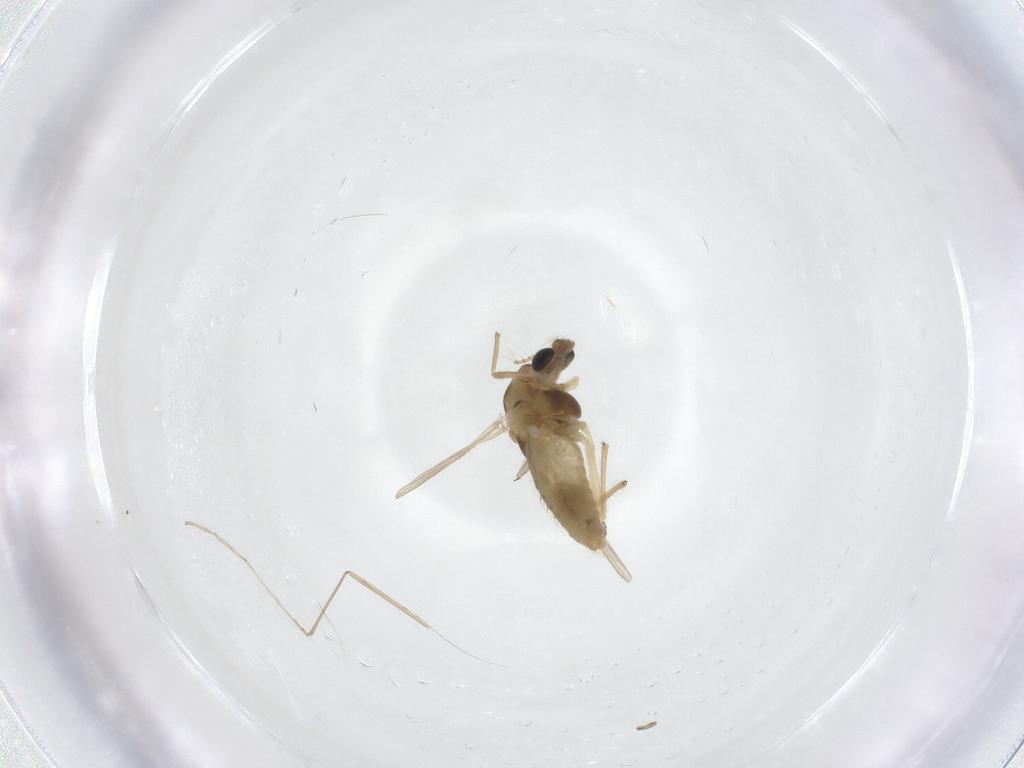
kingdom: Animalia
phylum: Arthropoda
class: Insecta
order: Diptera
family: Chironomidae
